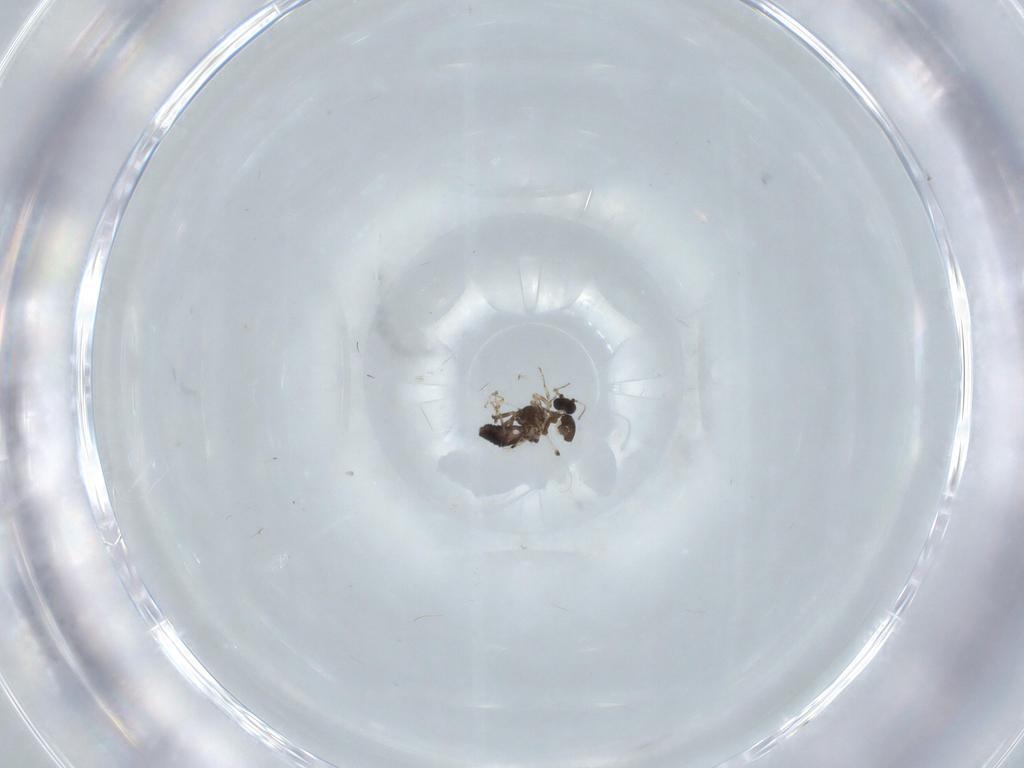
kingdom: Animalia
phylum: Arthropoda
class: Insecta
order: Diptera
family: Ceratopogonidae
